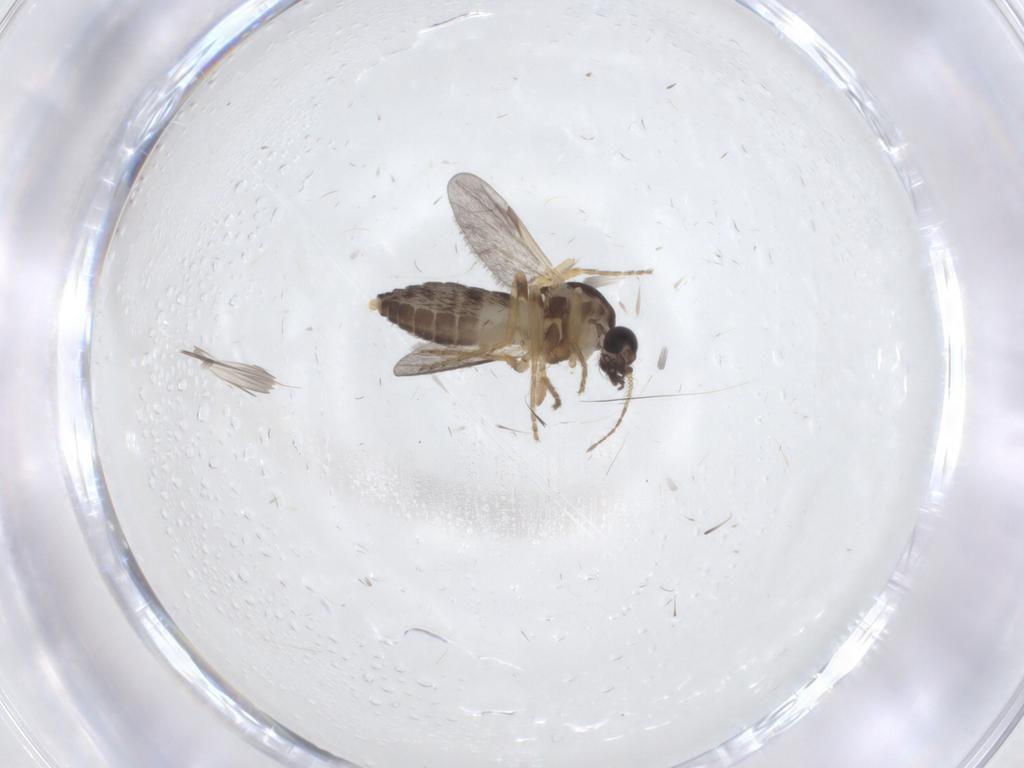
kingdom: Animalia
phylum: Arthropoda
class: Insecta
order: Diptera
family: Ceratopogonidae
